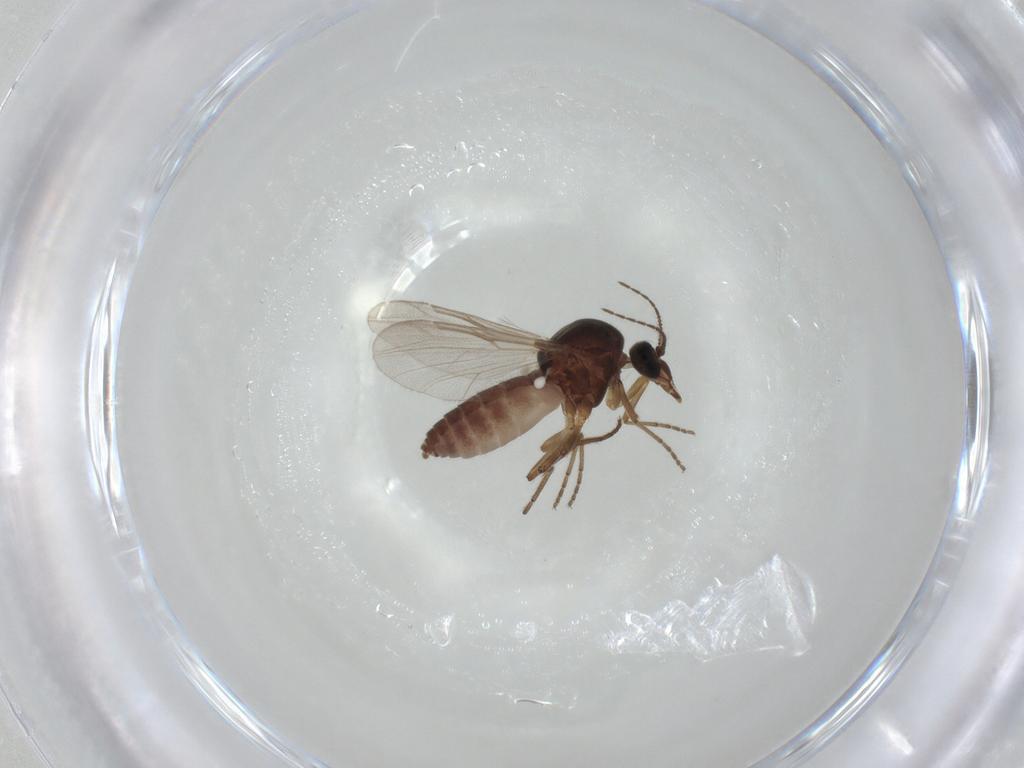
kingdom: Animalia
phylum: Arthropoda
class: Insecta
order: Diptera
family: Ceratopogonidae
